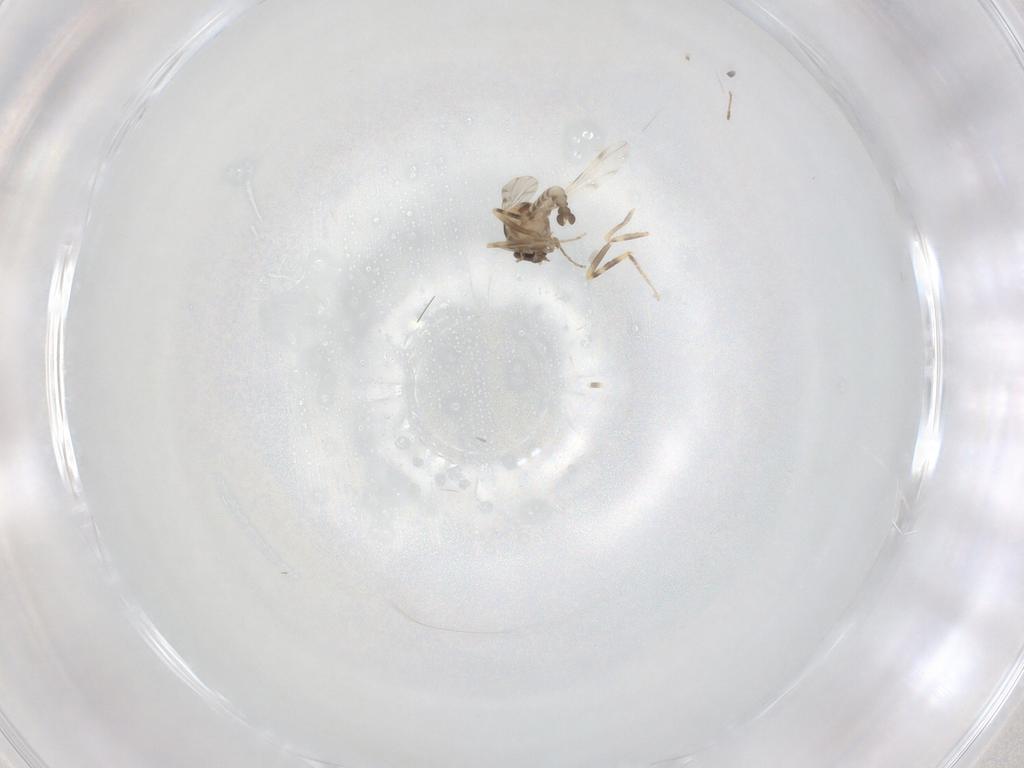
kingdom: Animalia
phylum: Arthropoda
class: Insecta
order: Diptera
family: Ceratopogonidae
